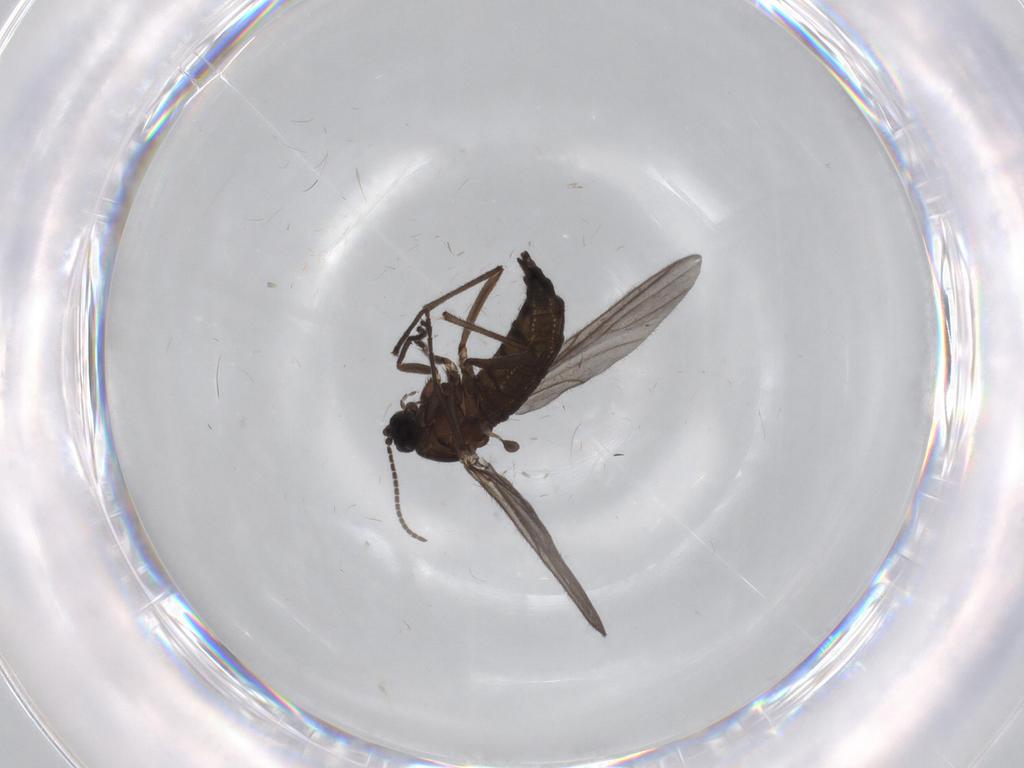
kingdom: Animalia
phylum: Arthropoda
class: Insecta
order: Diptera
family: Sciaridae
